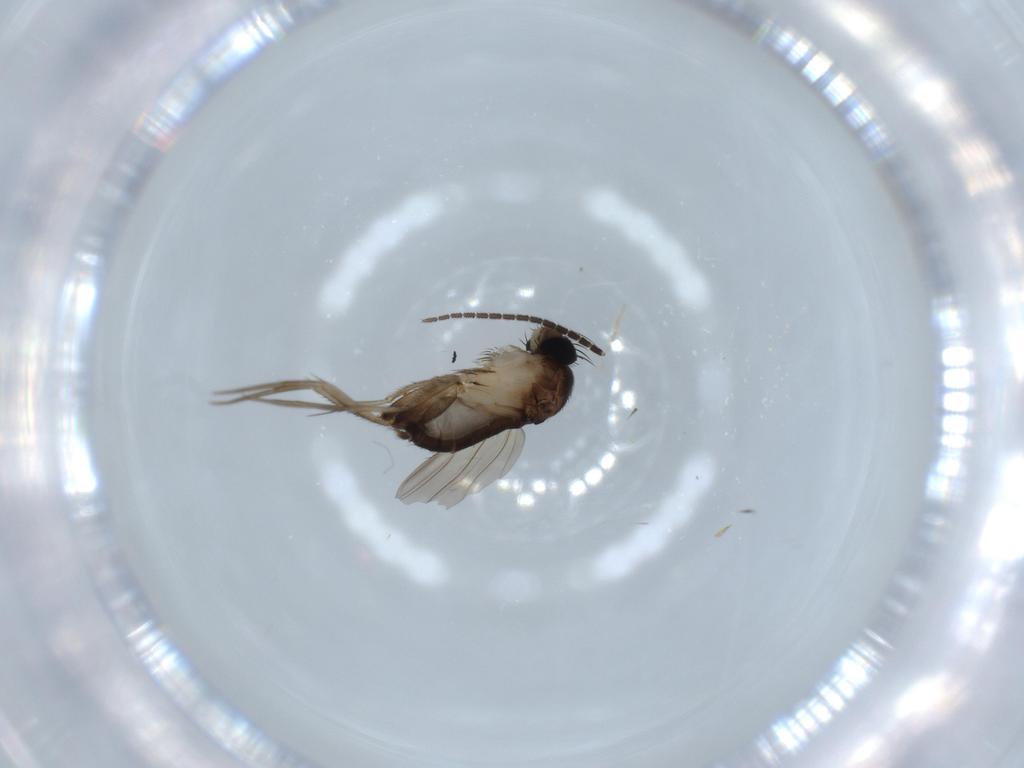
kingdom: Animalia
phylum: Arthropoda
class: Insecta
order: Diptera
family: Phoridae
